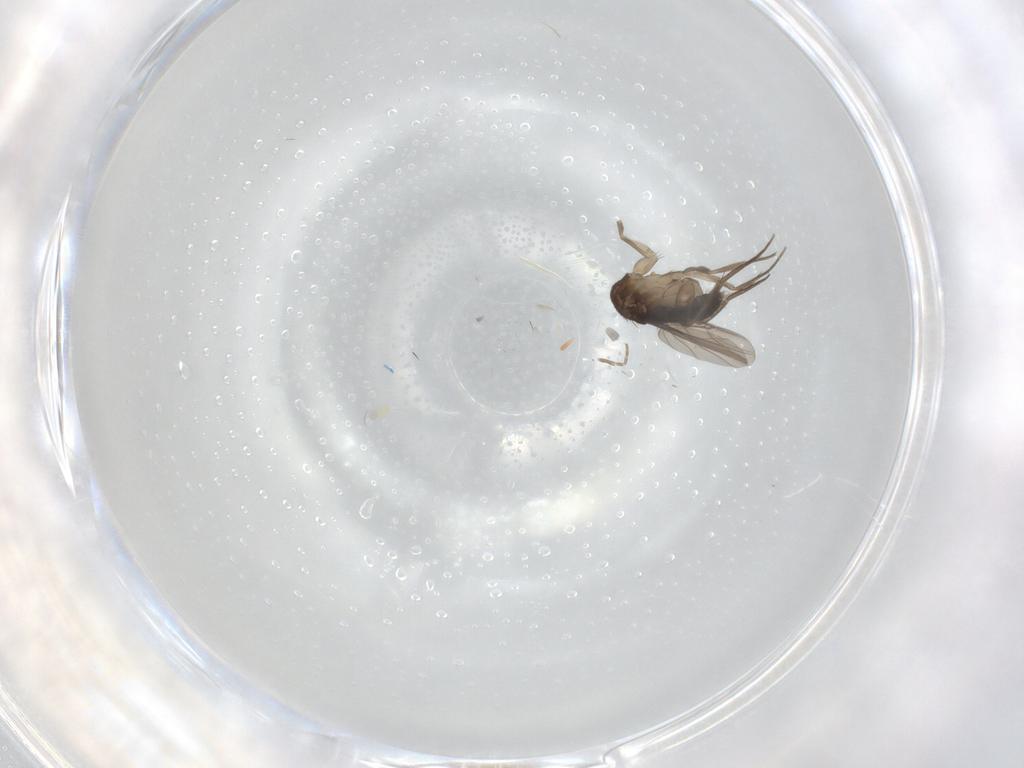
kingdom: Animalia
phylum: Arthropoda
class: Insecta
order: Diptera
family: Phoridae
